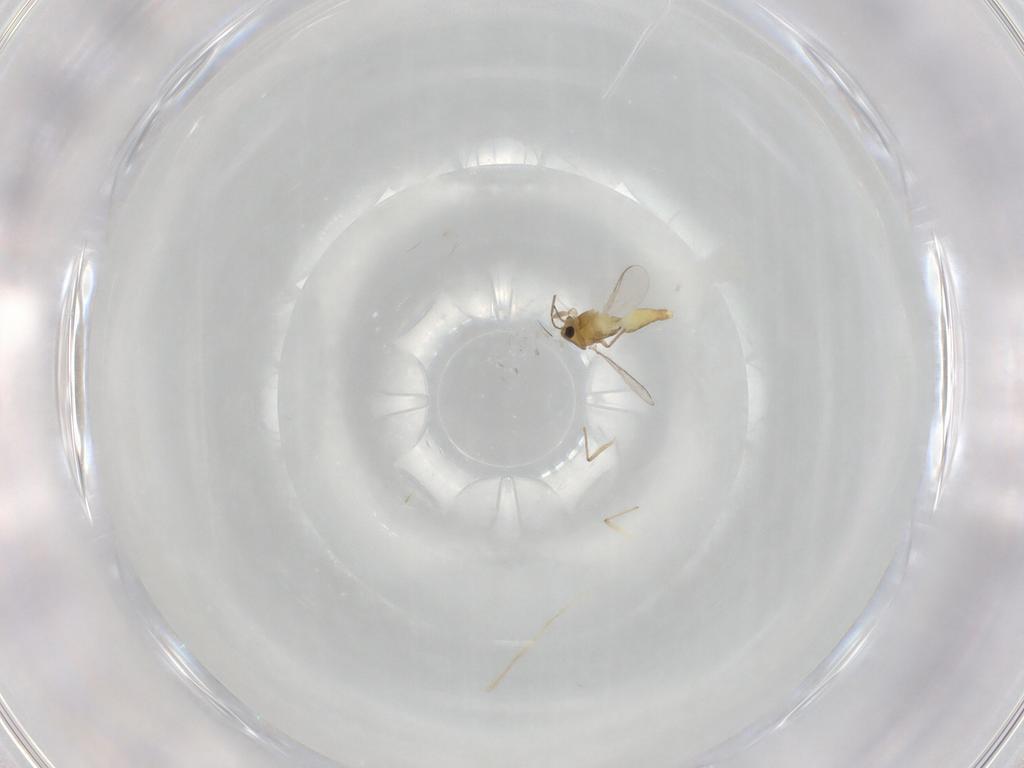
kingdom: Animalia
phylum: Arthropoda
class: Insecta
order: Diptera
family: Chironomidae
